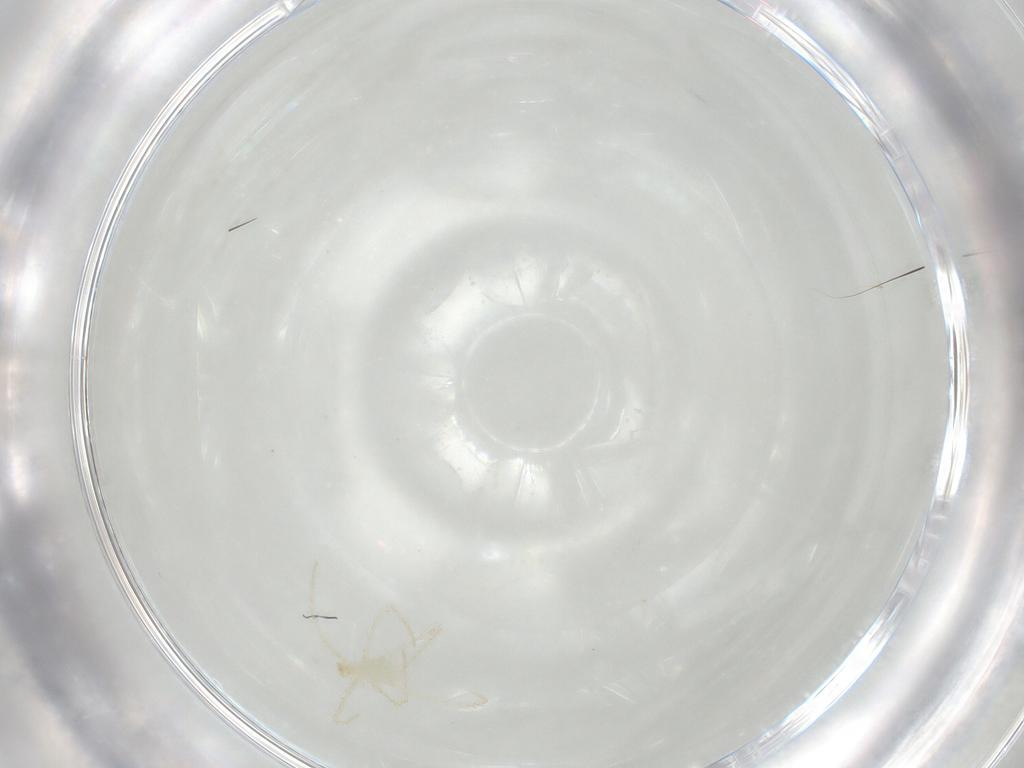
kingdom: Animalia
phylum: Arthropoda
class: Arachnida
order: Trombidiformes
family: Erythraeidae
